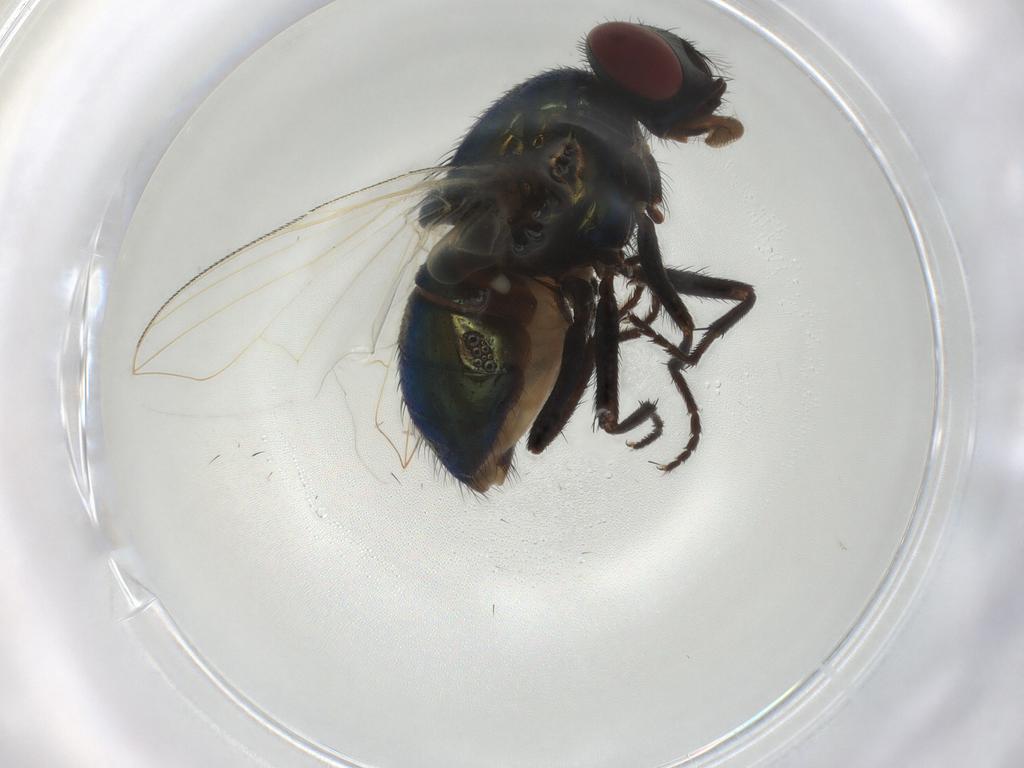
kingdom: Animalia
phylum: Arthropoda
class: Insecta
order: Diptera
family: Muscidae
